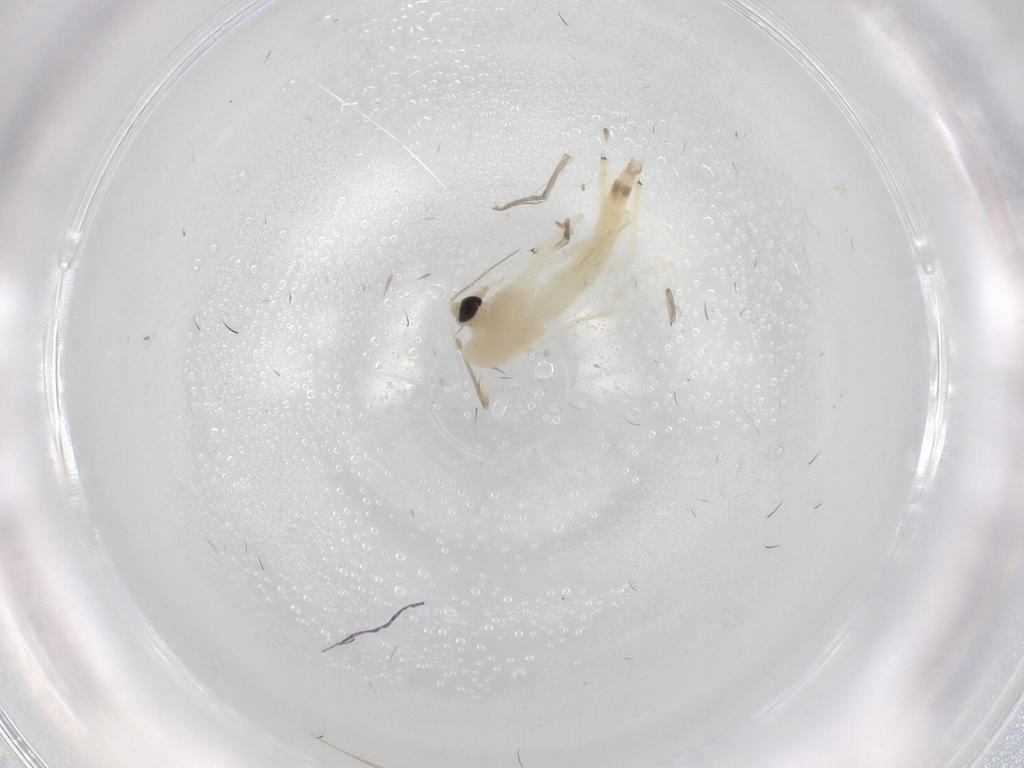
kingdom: Animalia
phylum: Arthropoda
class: Insecta
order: Diptera
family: Chironomidae
